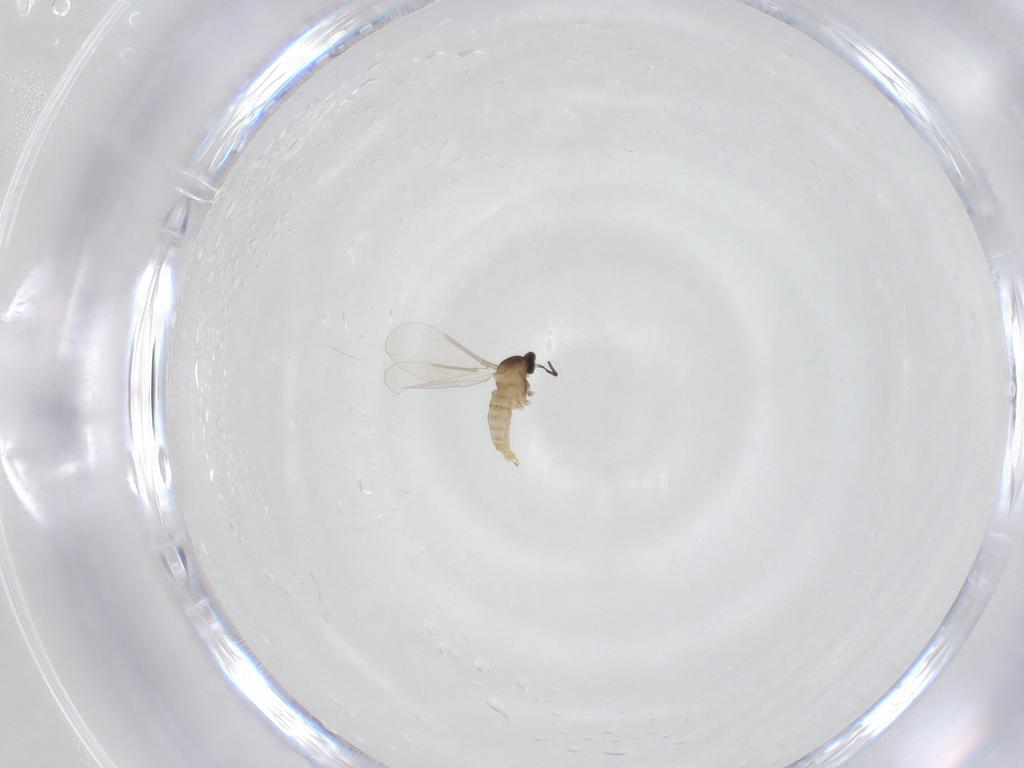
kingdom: Animalia
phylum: Arthropoda
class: Insecta
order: Diptera
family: Cecidomyiidae
